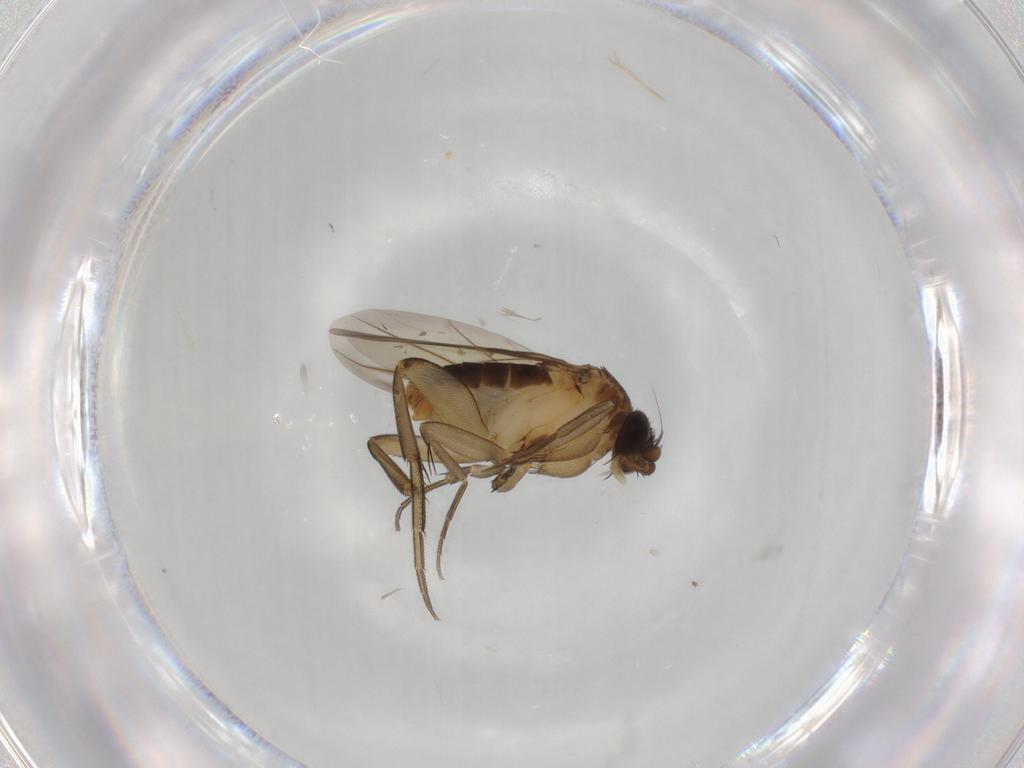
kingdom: Animalia
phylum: Arthropoda
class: Insecta
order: Diptera
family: Phoridae
